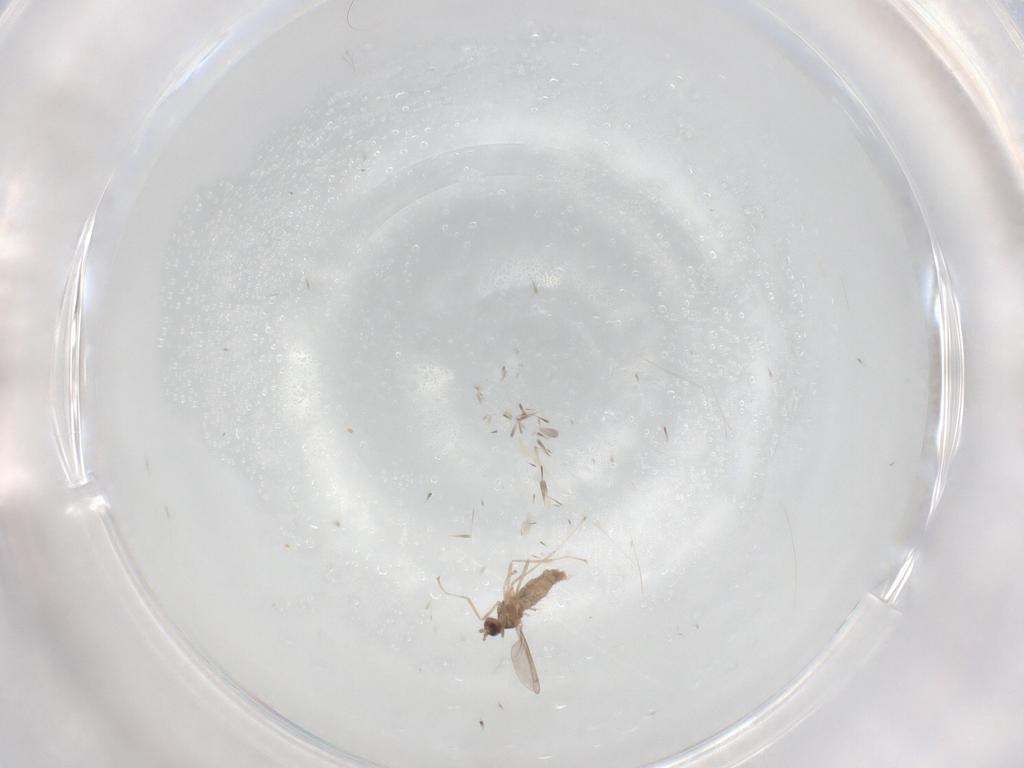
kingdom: Animalia
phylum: Arthropoda
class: Insecta
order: Diptera
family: Cecidomyiidae
